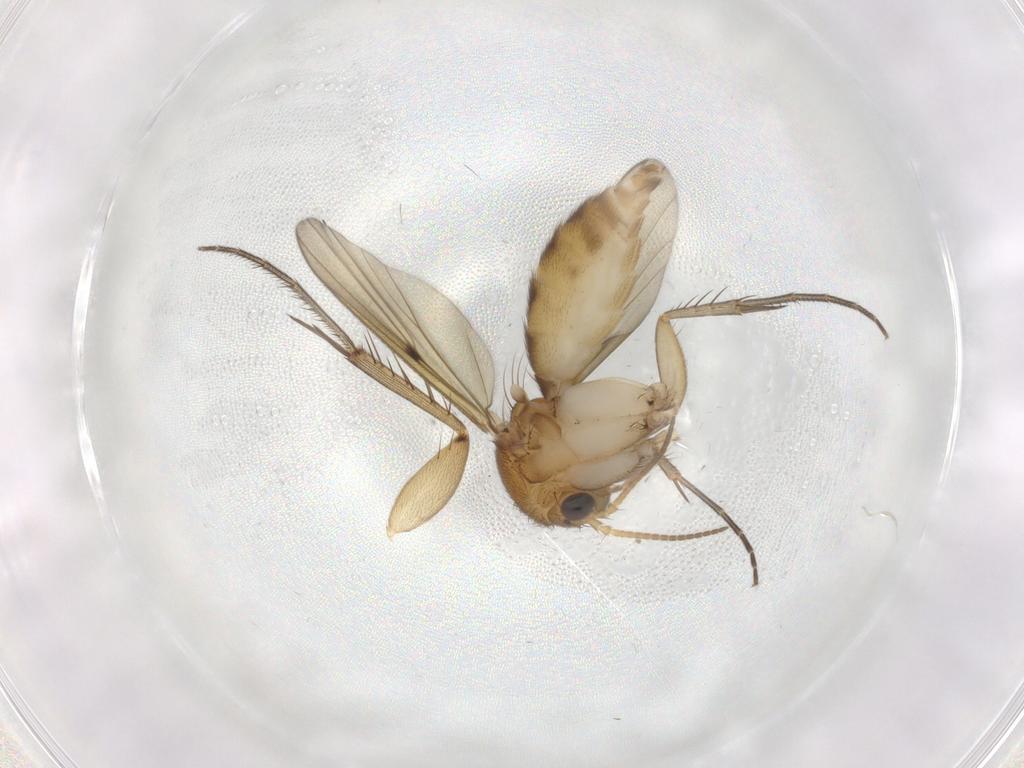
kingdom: Animalia
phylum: Arthropoda
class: Insecta
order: Diptera
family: Mycetophilidae
